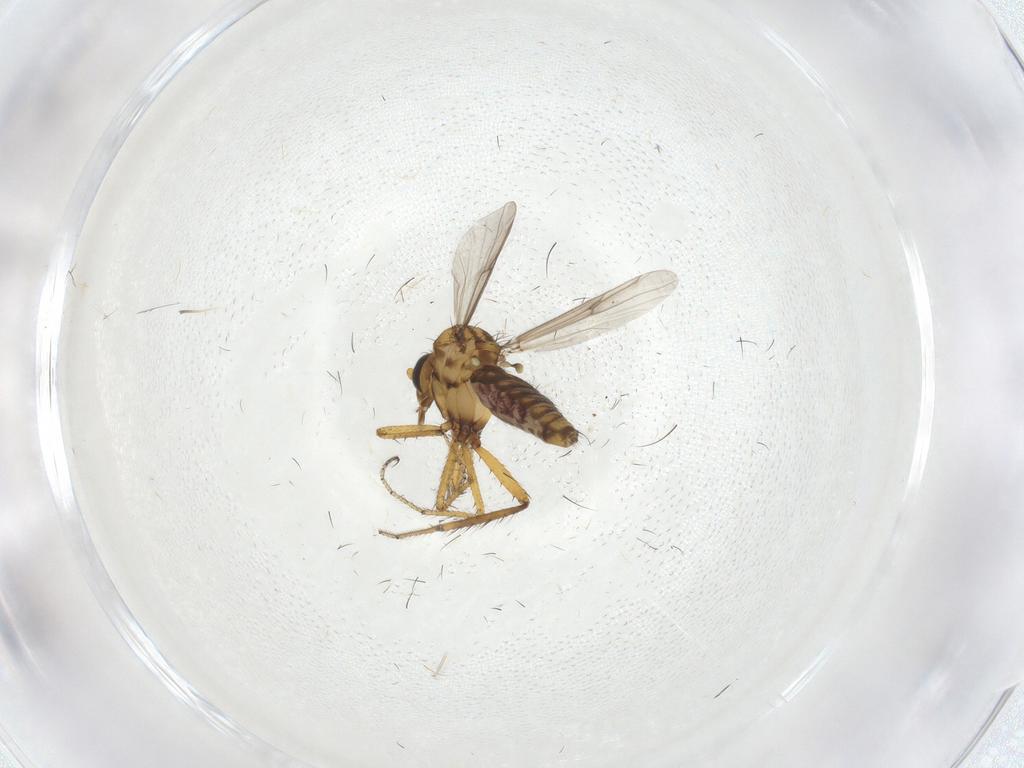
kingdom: Animalia
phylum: Arthropoda
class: Insecta
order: Diptera
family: Ceratopogonidae
